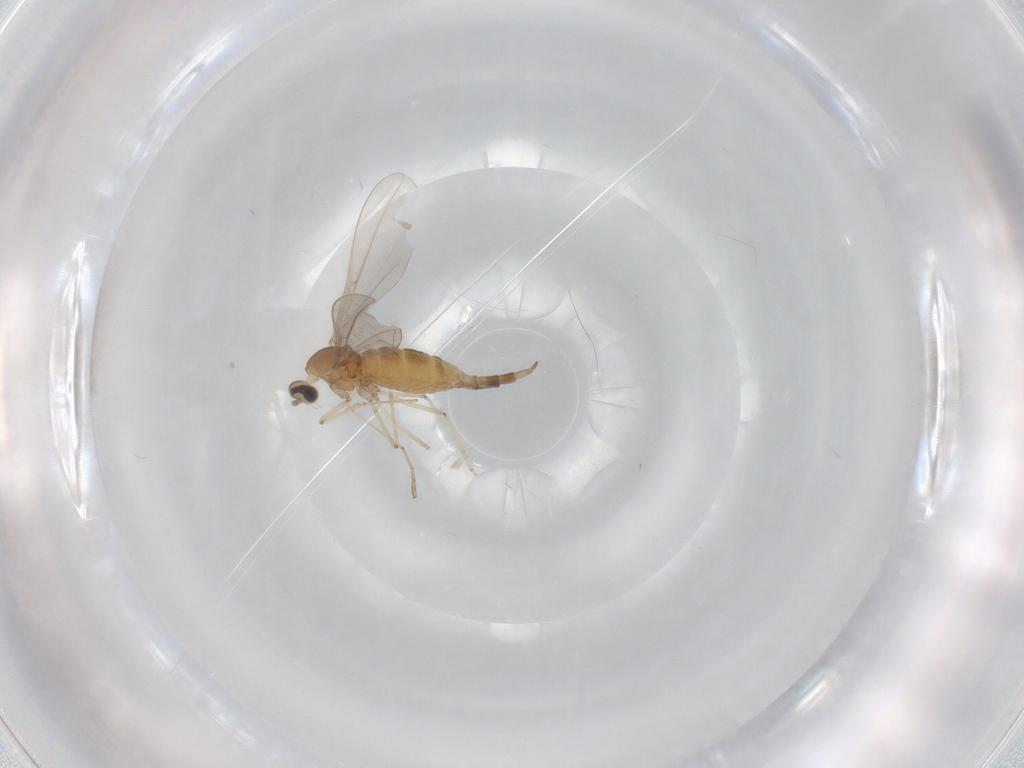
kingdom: Animalia
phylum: Arthropoda
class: Insecta
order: Diptera
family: Cecidomyiidae
